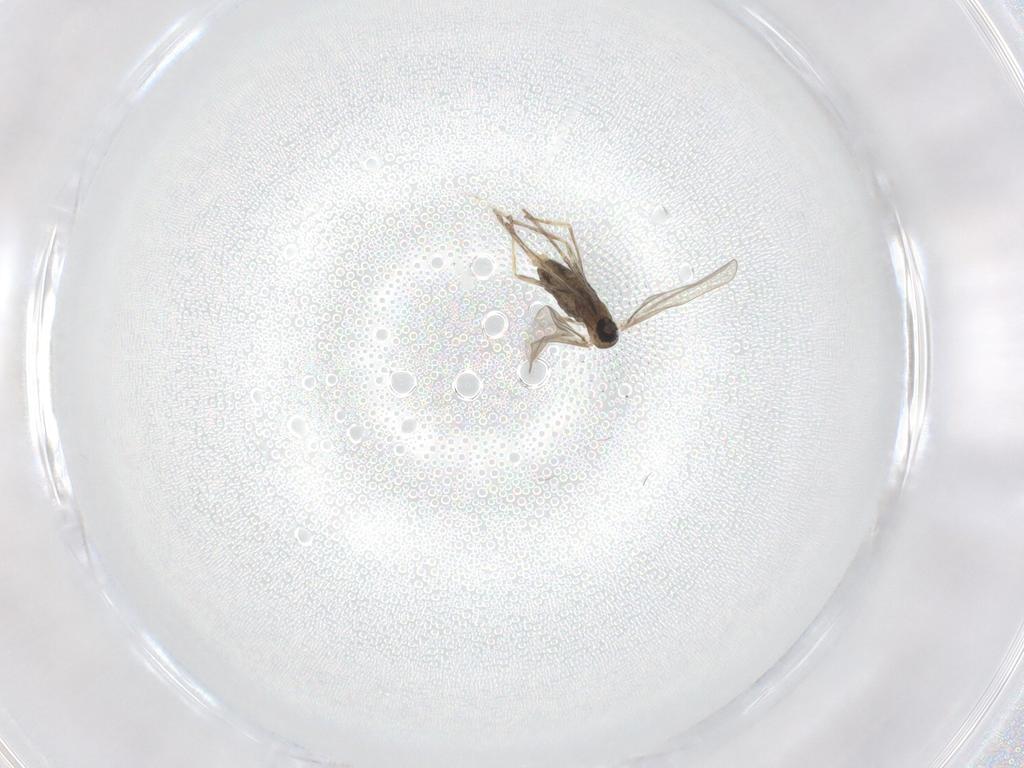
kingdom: Animalia
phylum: Arthropoda
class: Insecta
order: Diptera
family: Cecidomyiidae
